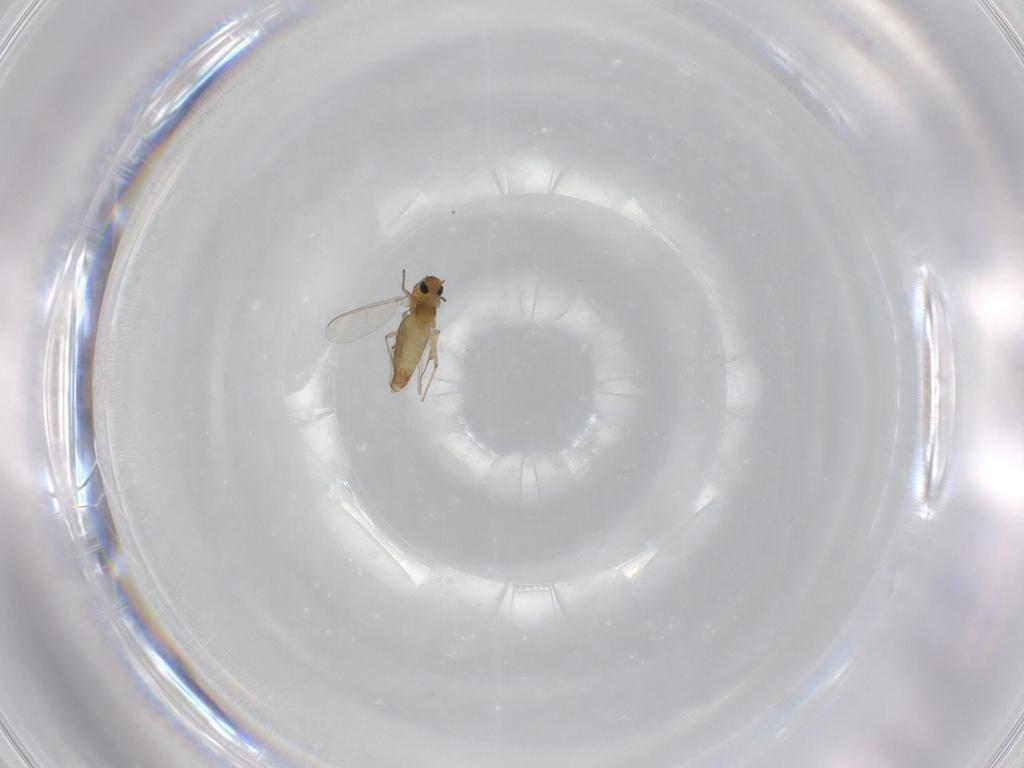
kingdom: Animalia
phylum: Arthropoda
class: Insecta
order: Diptera
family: Chironomidae
